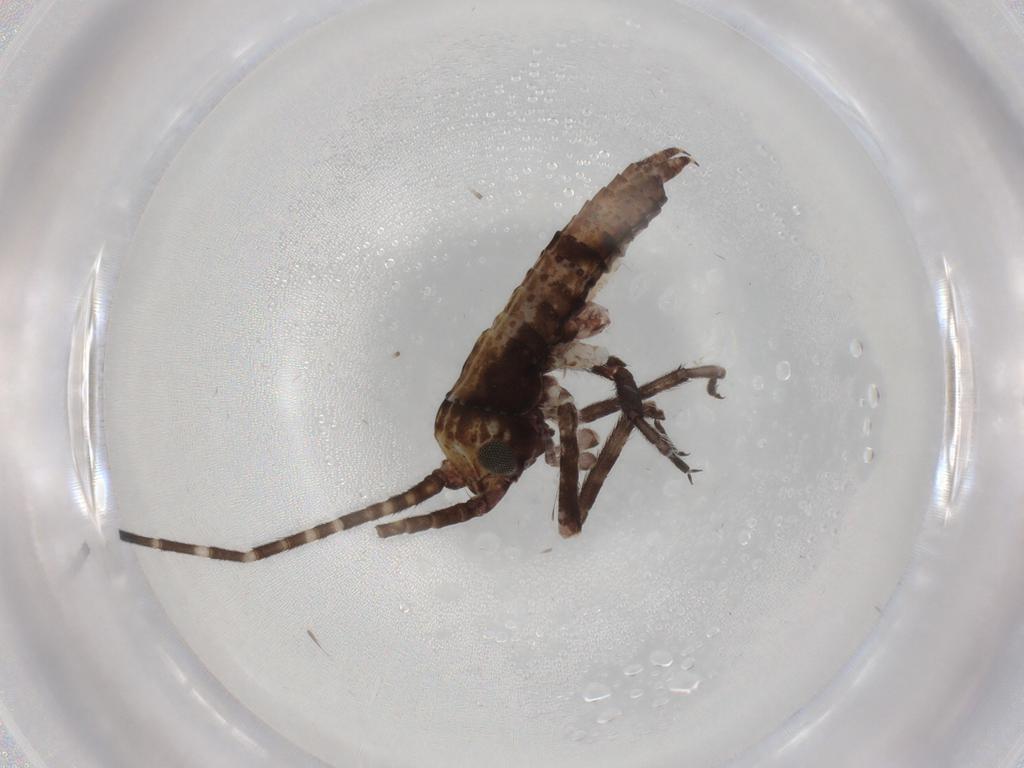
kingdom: Animalia
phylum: Arthropoda
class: Insecta
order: Orthoptera
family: Gryllidae
